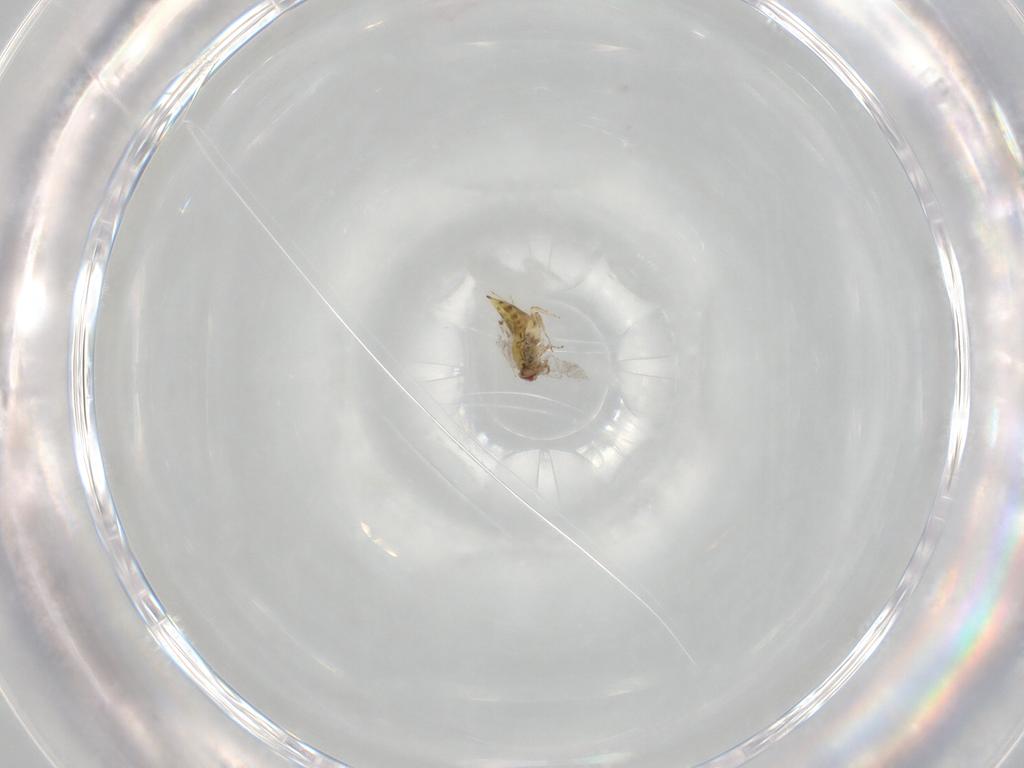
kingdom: Animalia
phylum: Arthropoda
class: Insecta
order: Hymenoptera
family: Trichogrammatidae
